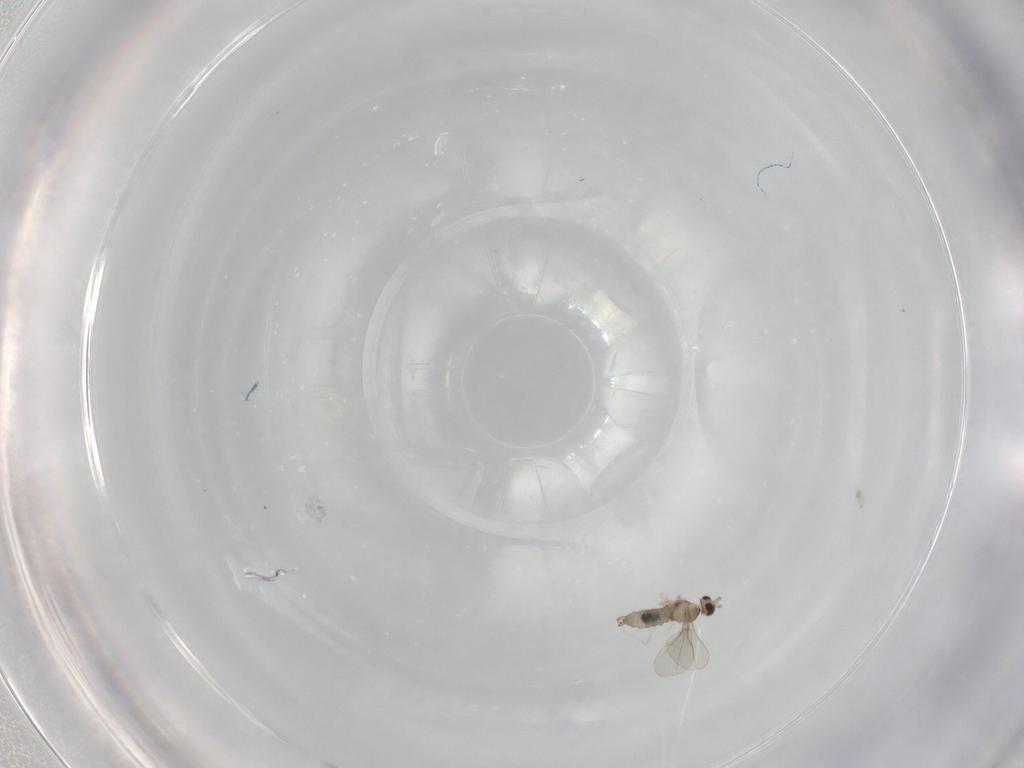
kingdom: Animalia
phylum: Arthropoda
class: Insecta
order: Diptera
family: Cecidomyiidae
